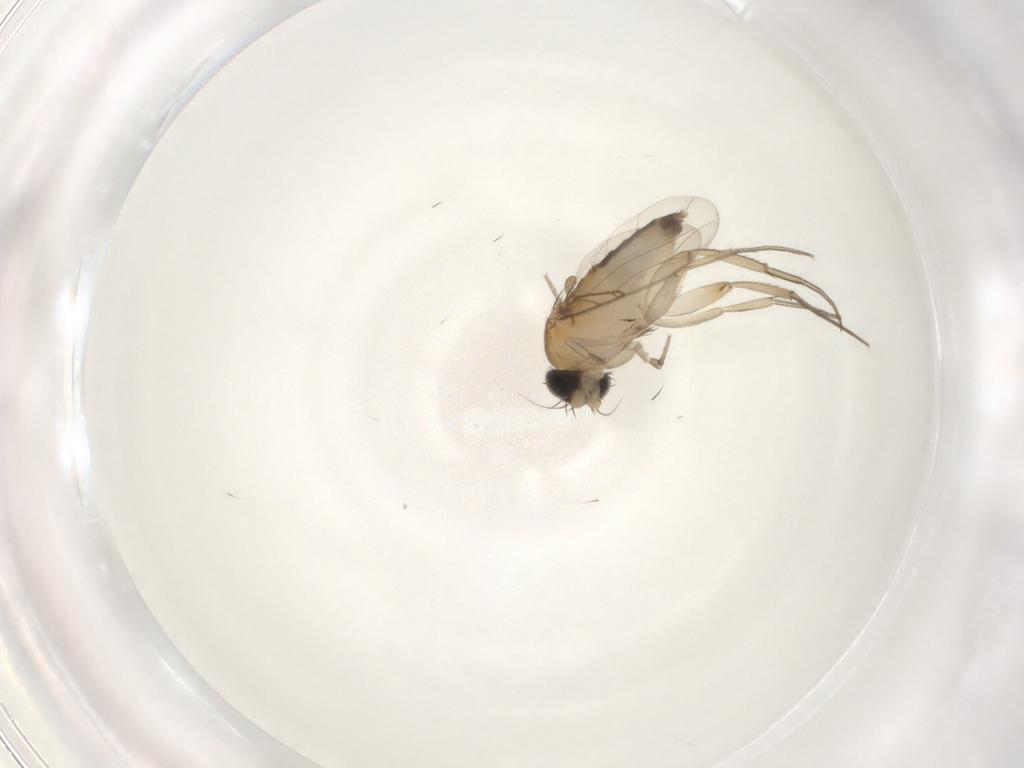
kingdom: Animalia
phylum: Arthropoda
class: Insecta
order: Diptera
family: Phoridae
